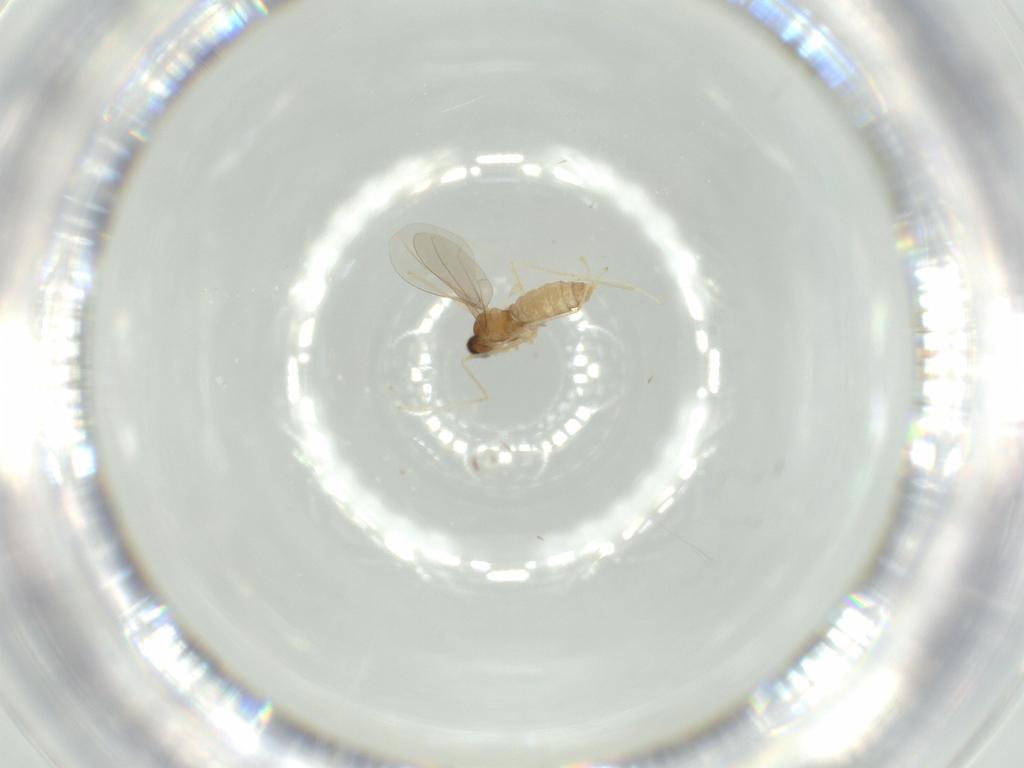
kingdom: Animalia
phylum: Arthropoda
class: Insecta
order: Diptera
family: Cecidomyiidae
